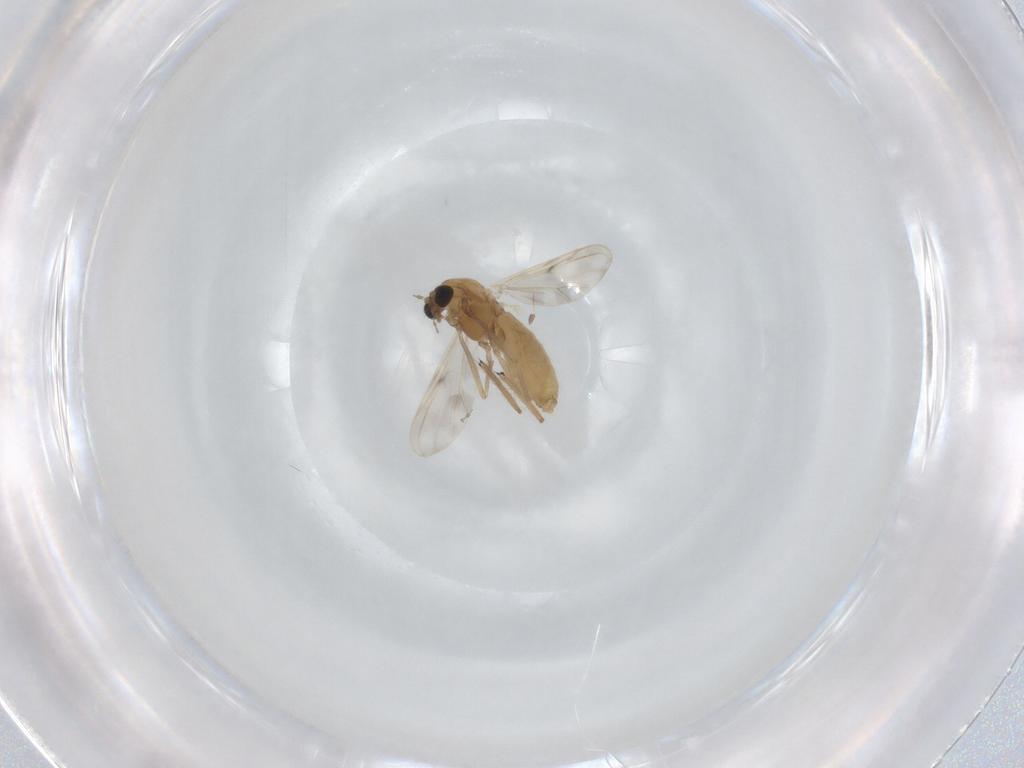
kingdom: Animalia
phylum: Arthropoda
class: Insecta
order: Diptera
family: Chironomidae
